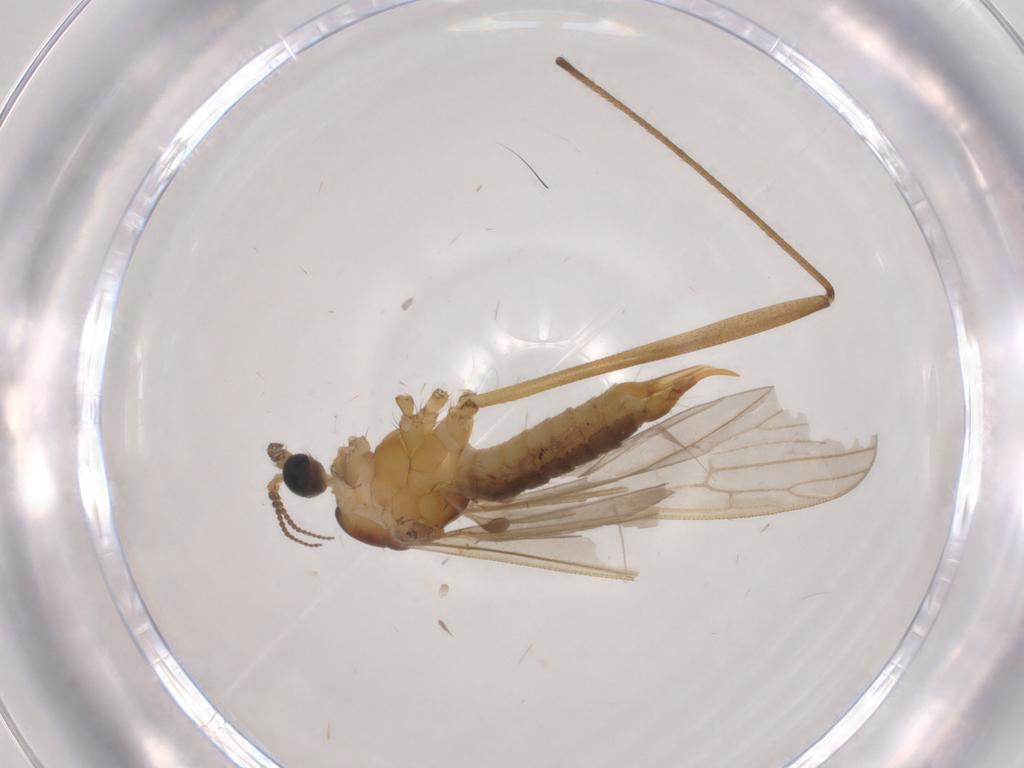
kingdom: Animalia
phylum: Arthropoda
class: Insecta
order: Diptera
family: Limoniidae
